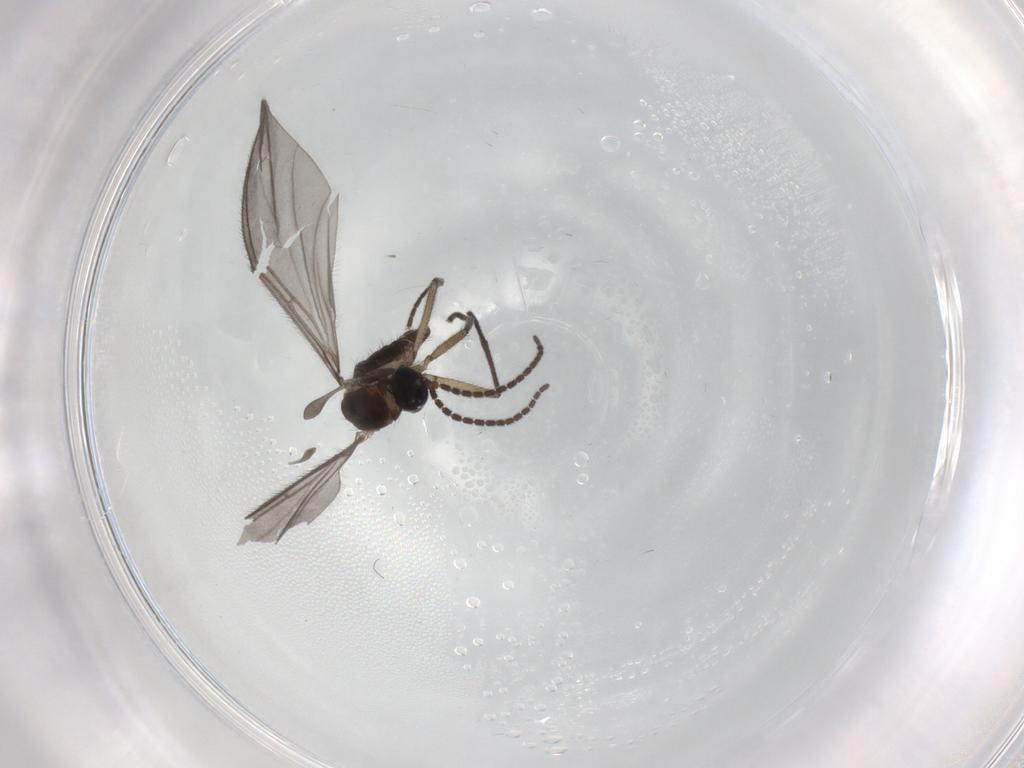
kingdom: Animalia
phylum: Arthropoda
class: Insecta
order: Diptera
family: Sciaridae
